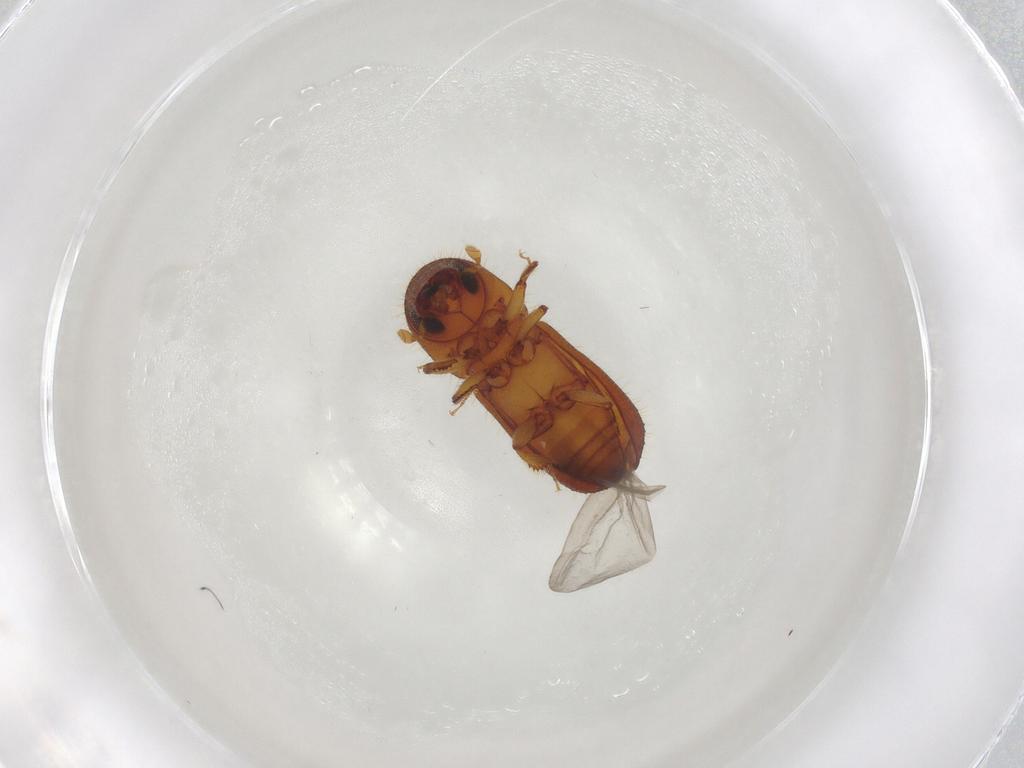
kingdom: Animalia
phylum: Arthropoda
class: Insecta
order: Coleoptera
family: Curculionidae
